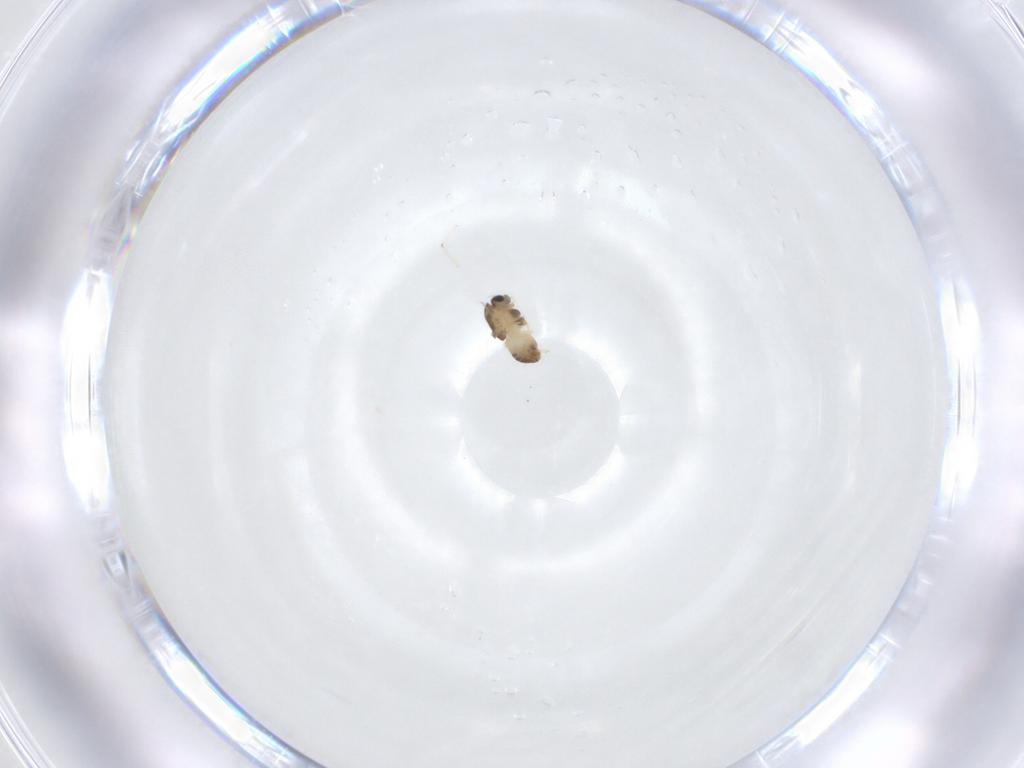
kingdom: Animalia
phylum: Arthropoda
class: Insecta
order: Diptera
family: Chironomidae
